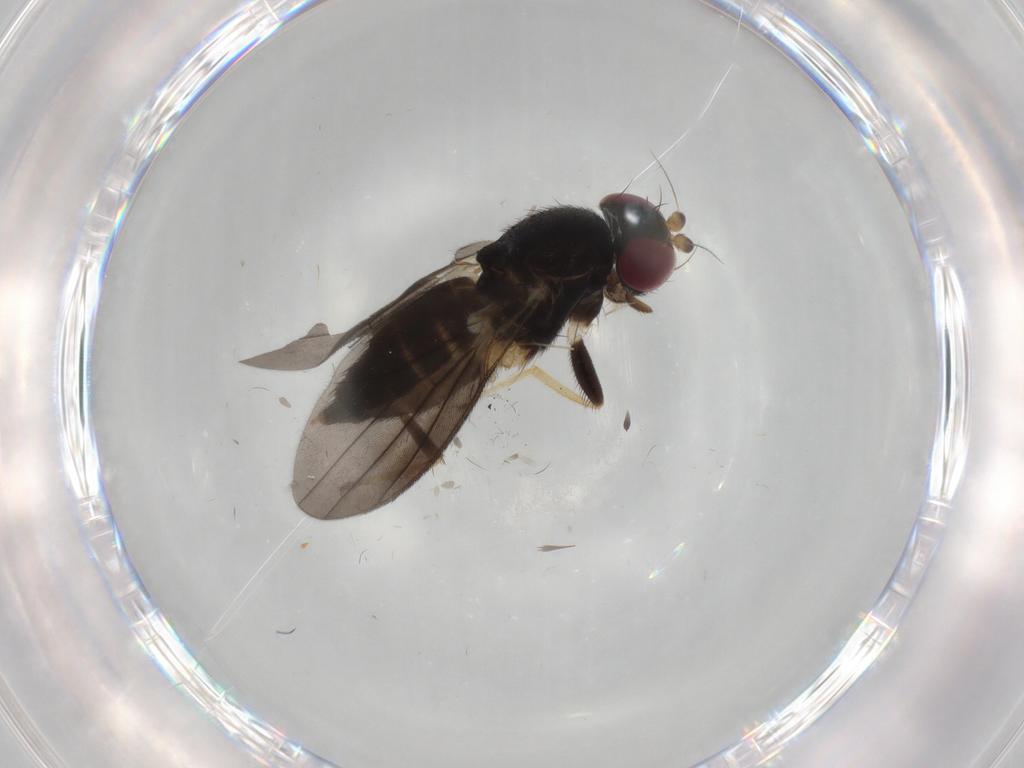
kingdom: Animalia
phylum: Arthropoda
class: Insecta
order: Diptera
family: Clusiidae
